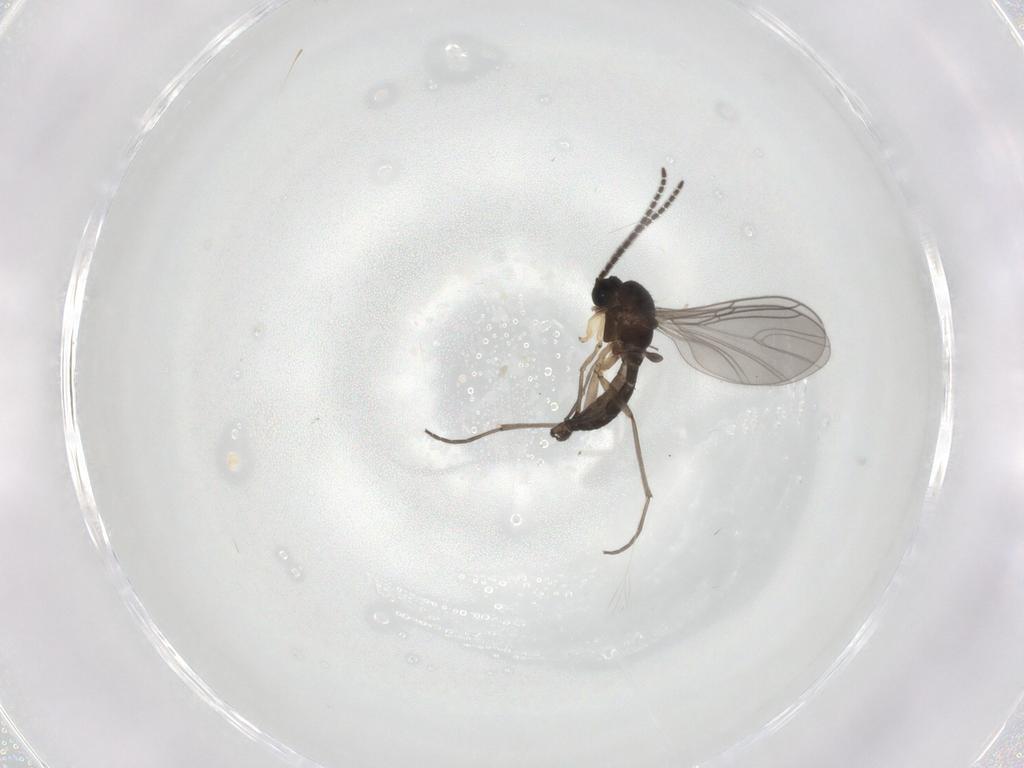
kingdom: Animalia
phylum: Arthropoda
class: Insecta
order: Diptera
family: Sciaridae
